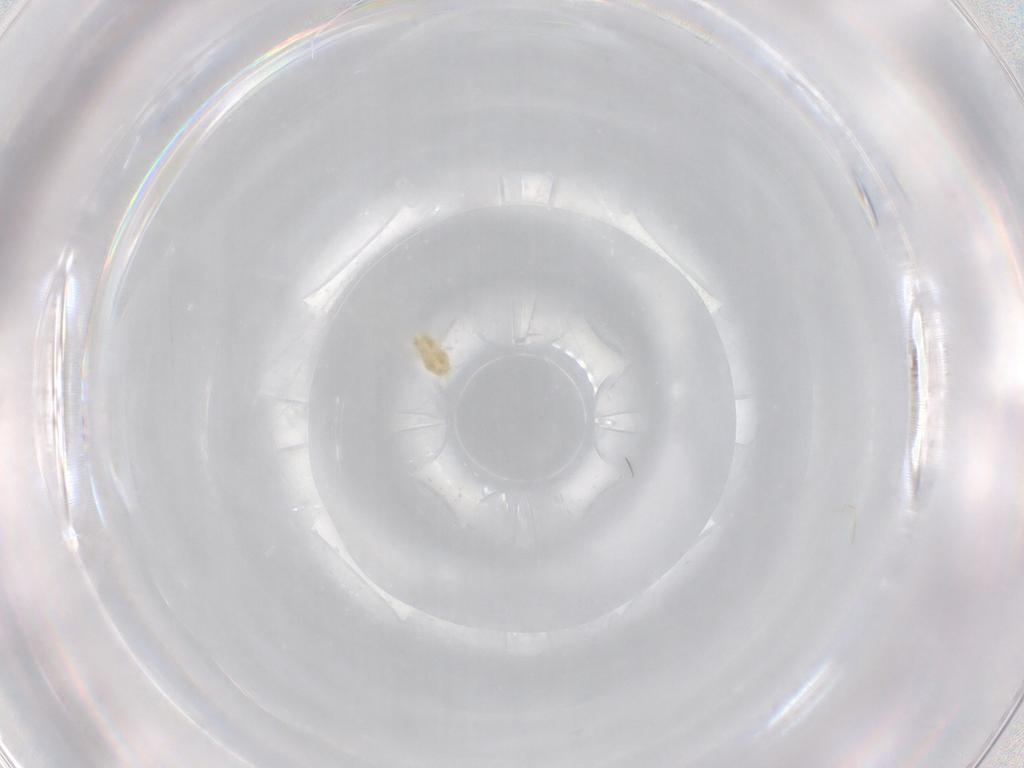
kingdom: Animalia
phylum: Arthropoda
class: Arachnida
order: Trombidiformes
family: Eupodidae
